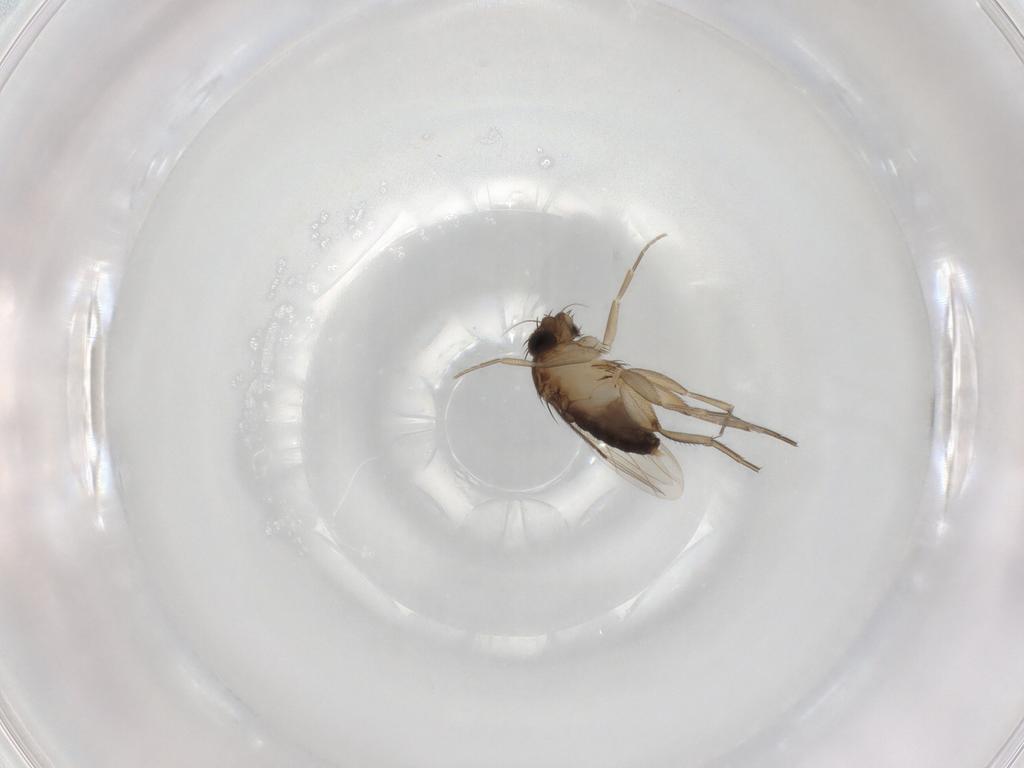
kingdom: Animalia
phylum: Arthropoda
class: Insecta
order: Diptera
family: Phoridae
